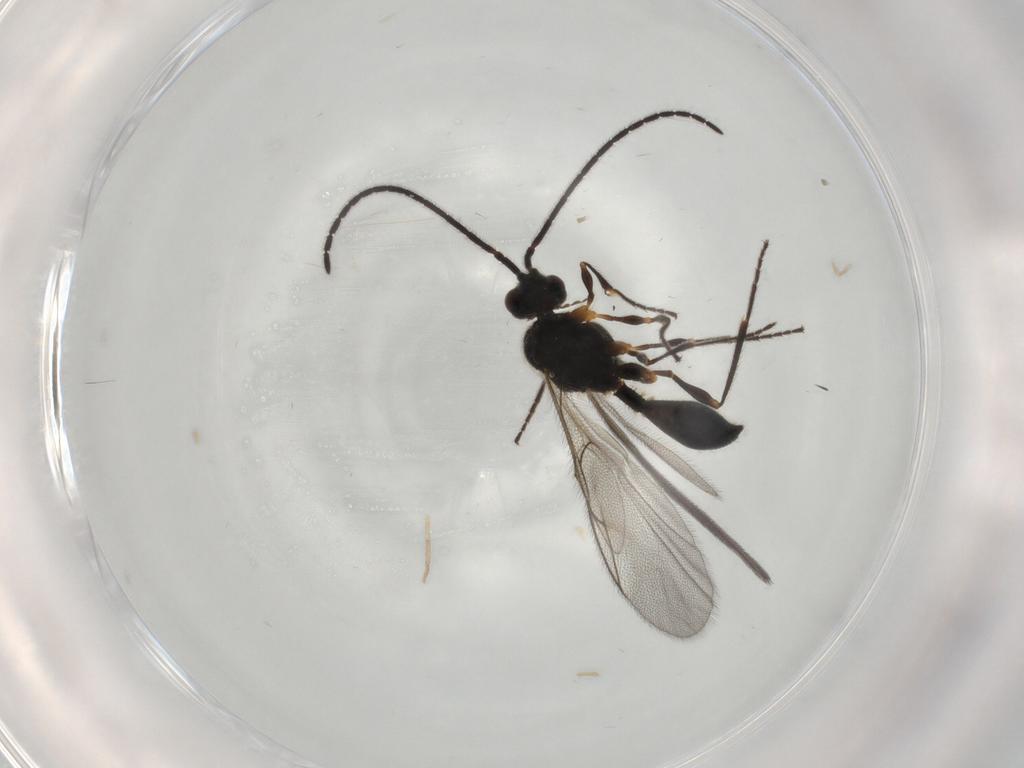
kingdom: Animalia
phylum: Arthropoda
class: Insecta
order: Hymenoptera
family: Diapriidae
